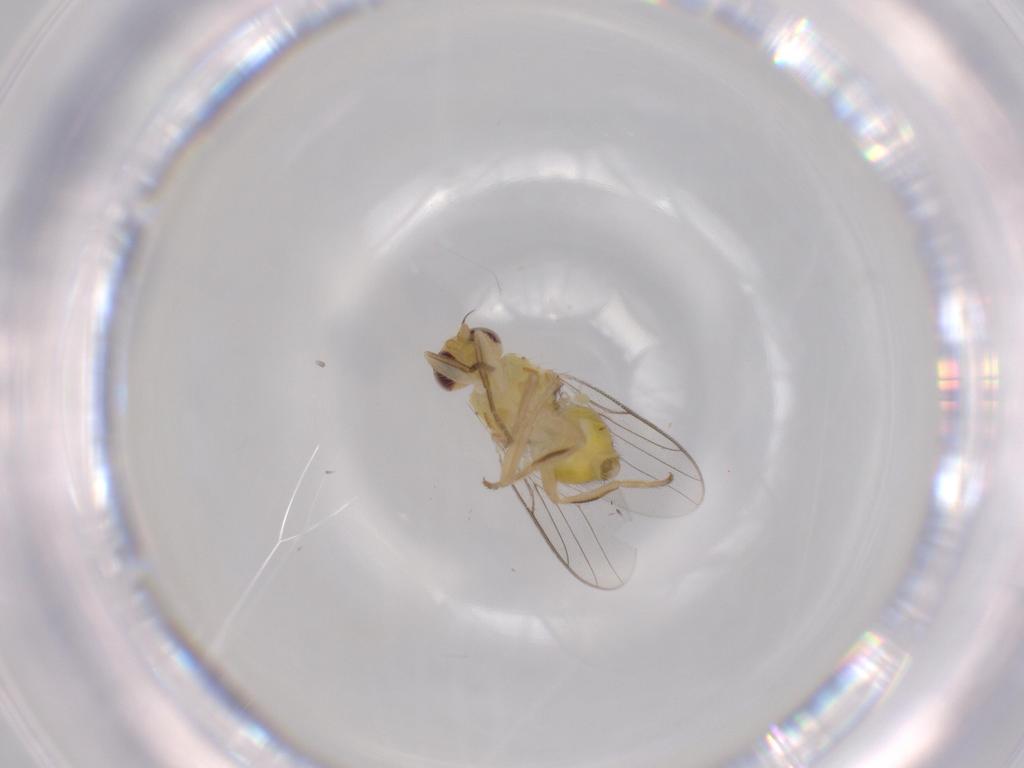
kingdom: Animalia
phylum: Arthropoda
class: Insecta
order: Diptera
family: Chloropidae
